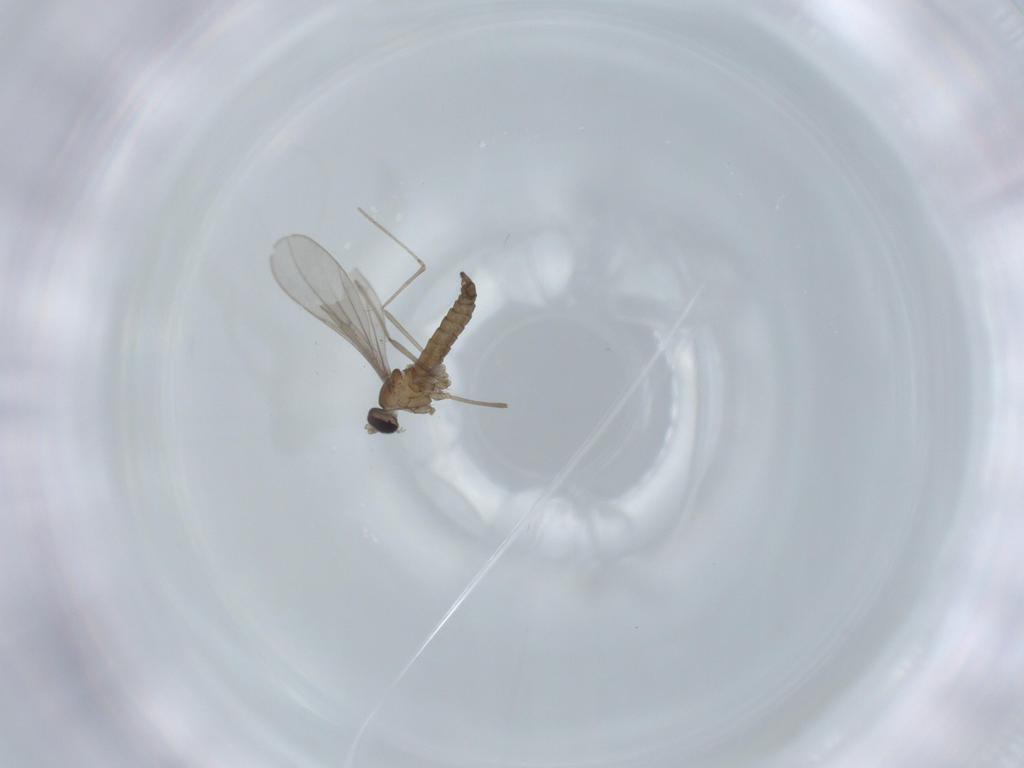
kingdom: Animalia
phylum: Arthropoda
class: Insecta
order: Diptera
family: Cecidomyiidae
